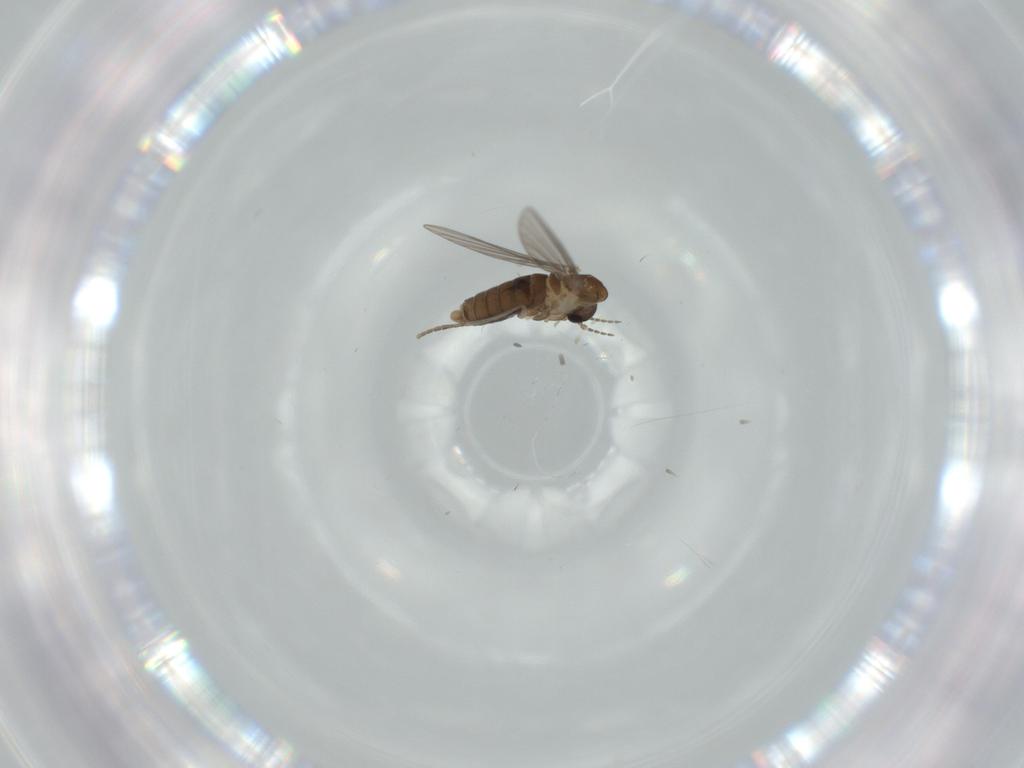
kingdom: Animalia
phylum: Arthropoda
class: Insecta
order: Diptera
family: Psychodidae
